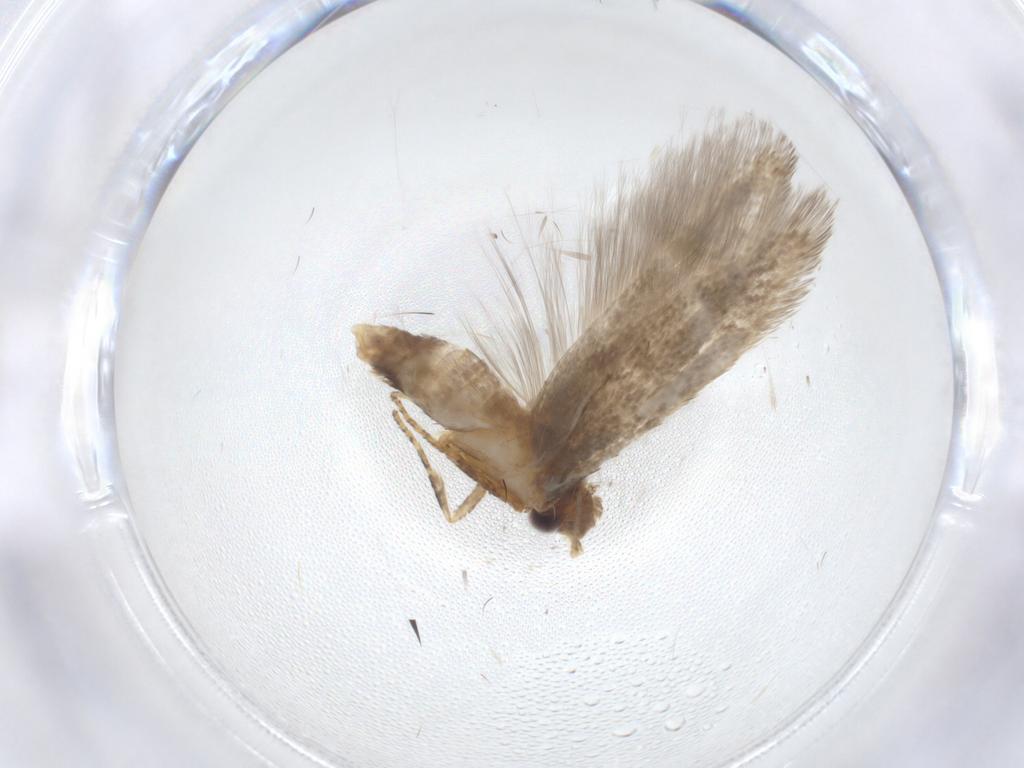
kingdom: Animalia
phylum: Arthropoda
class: Insecta
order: Lepidoptera
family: Blastobasidae
